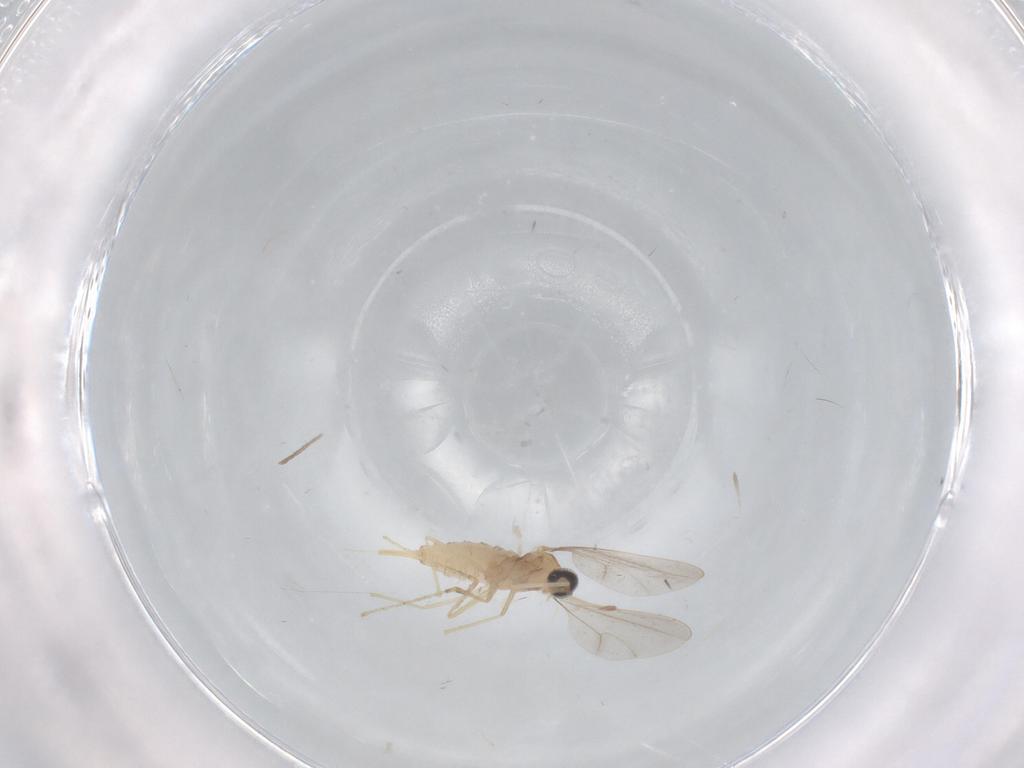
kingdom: Animalia
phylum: Arthropoda
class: Insecta
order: Diptera
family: Cecidomyiidae
